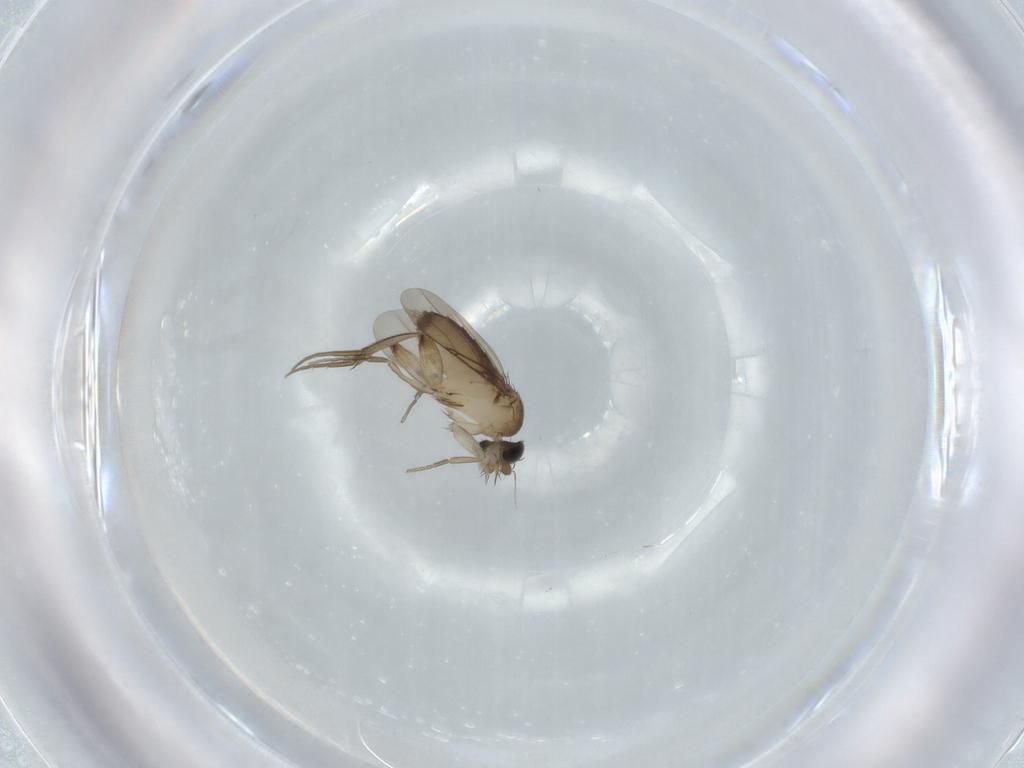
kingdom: Animalia
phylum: Arthropoda
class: Insecta
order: Diptera
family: Phoridae
